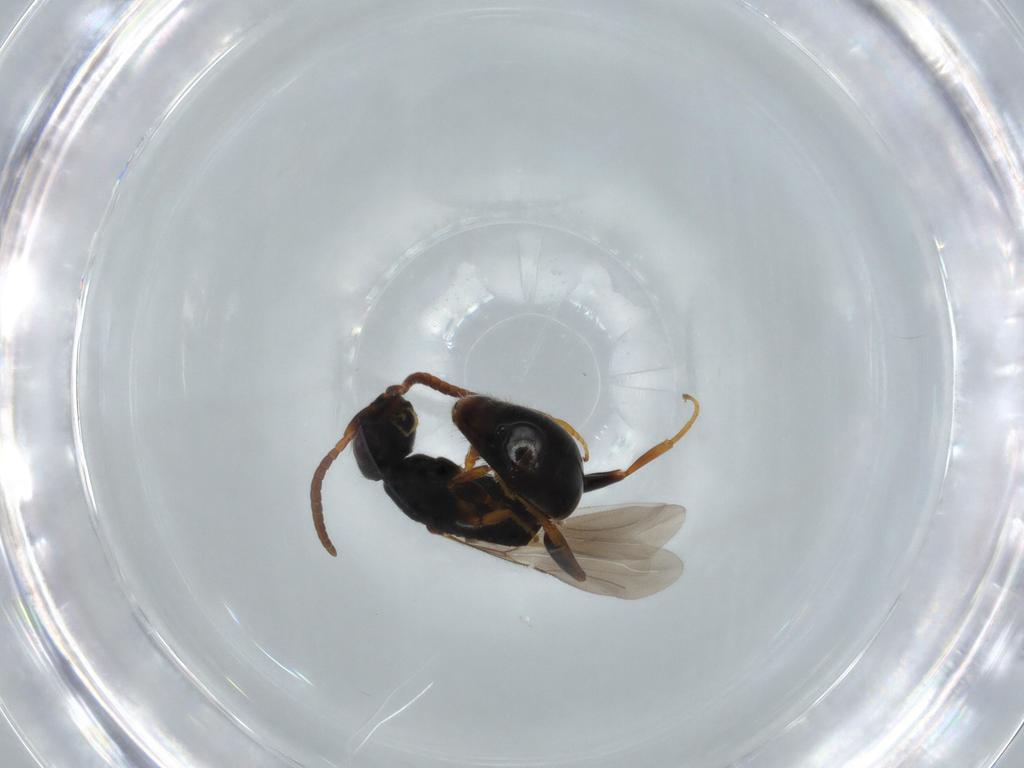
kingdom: Animalia
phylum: Arthropoda
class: Insecta
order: Hymenoptera
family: Bethylidae
